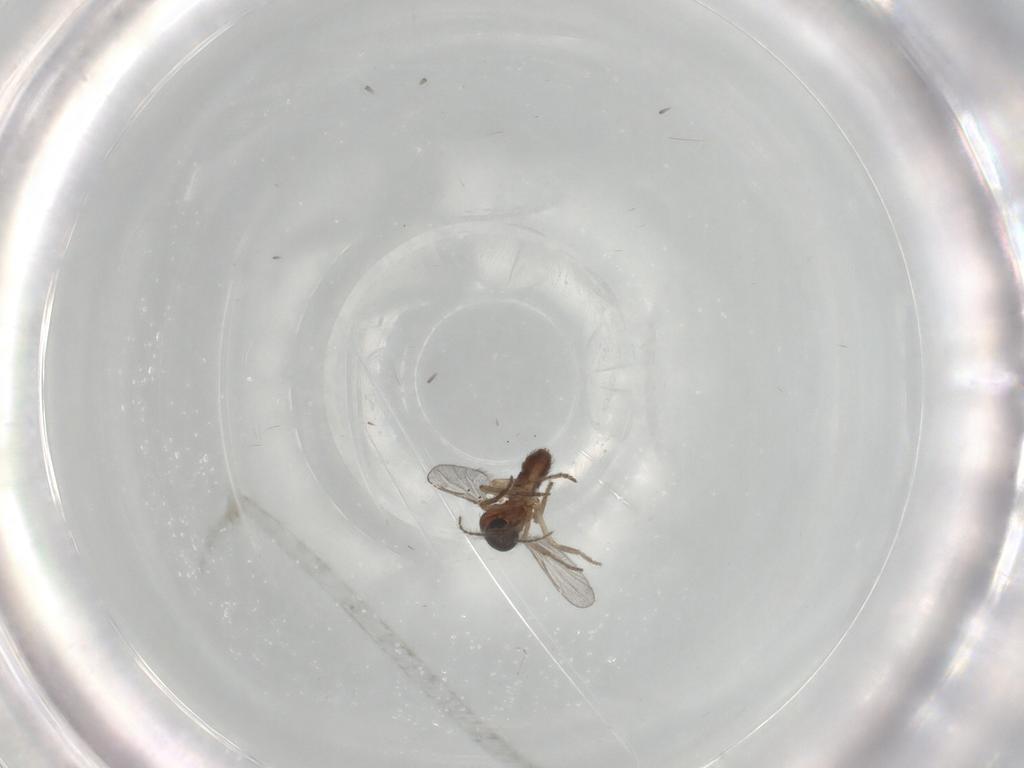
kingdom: Animalia
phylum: Arthropoda
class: Insecta
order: Diptera
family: Ceratopogonidae
